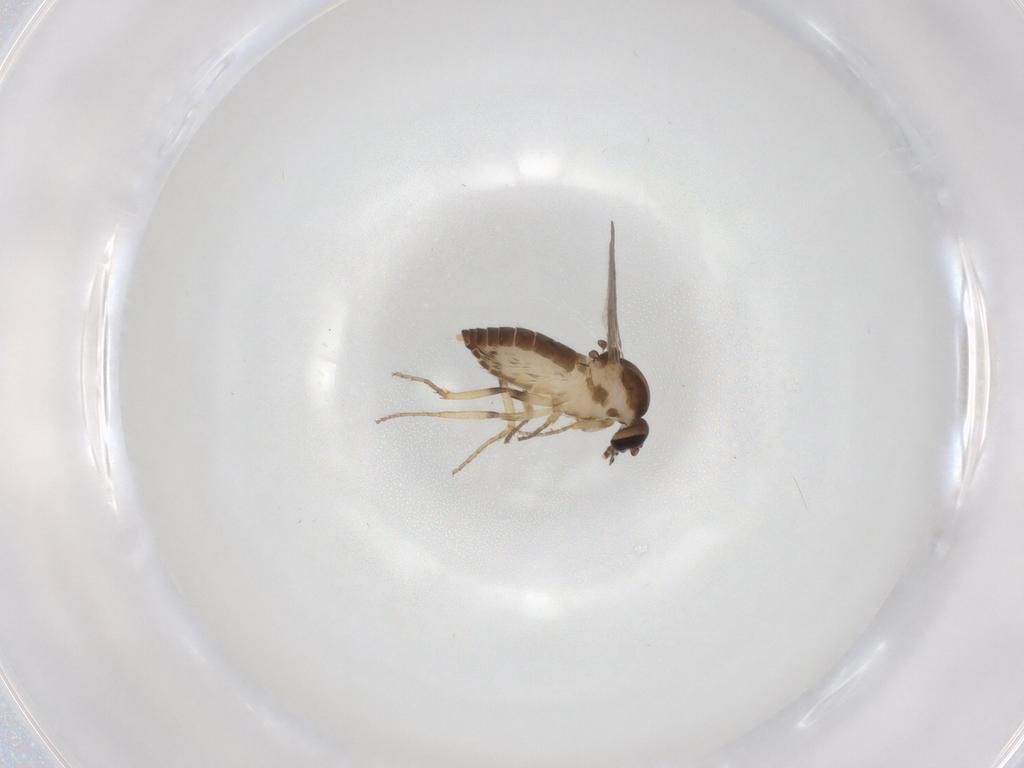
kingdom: Animalia
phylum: Arthropoda
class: Insecta
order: Diptera
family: Ceratopogonidae
